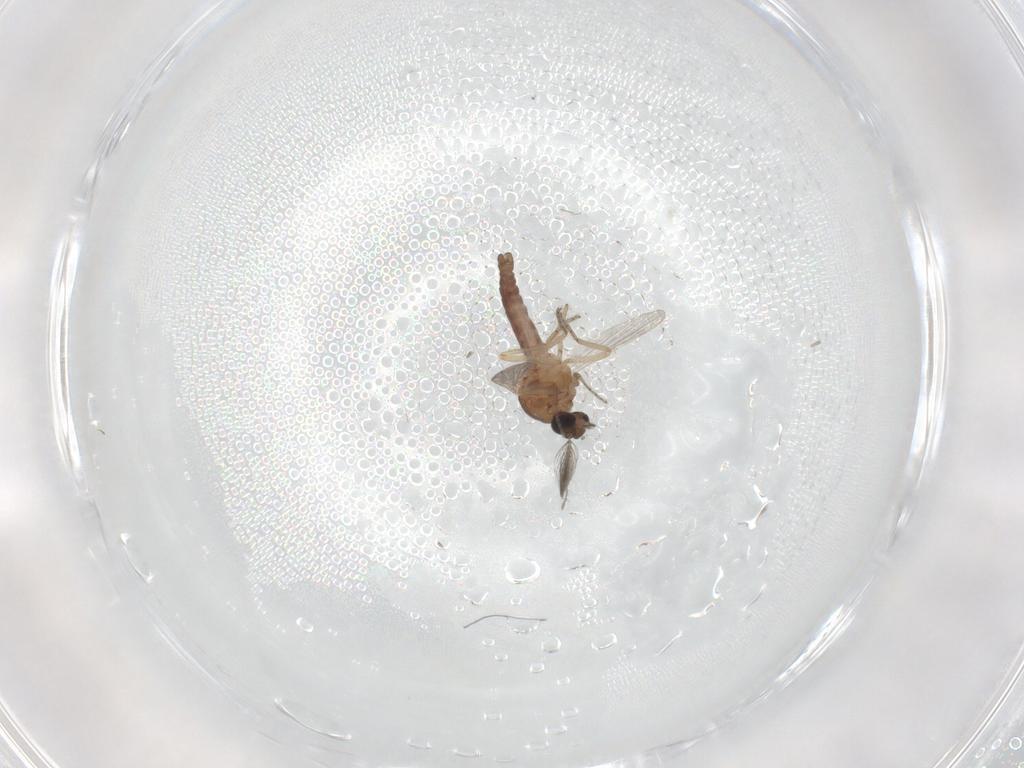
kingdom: Animalia
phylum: Arthropoda
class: Insecta
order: Diptera
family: Ceratopogonidae
